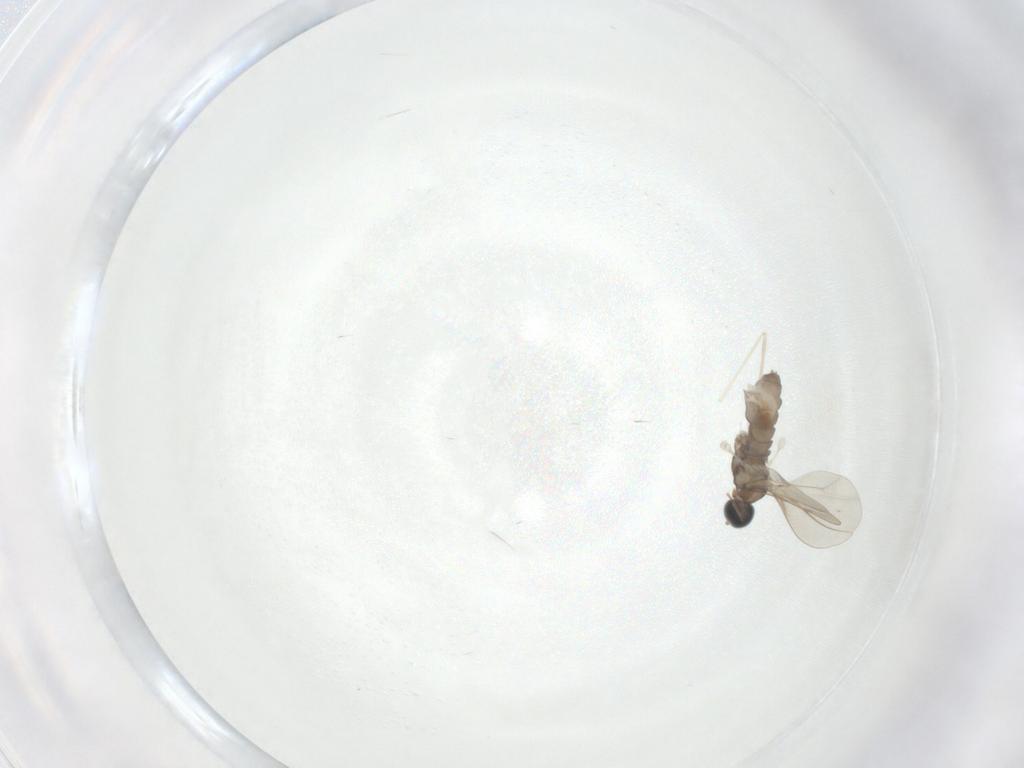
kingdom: Animalia
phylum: Arthropoda
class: Insecta
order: Diptera
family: Cecidomyiidae
